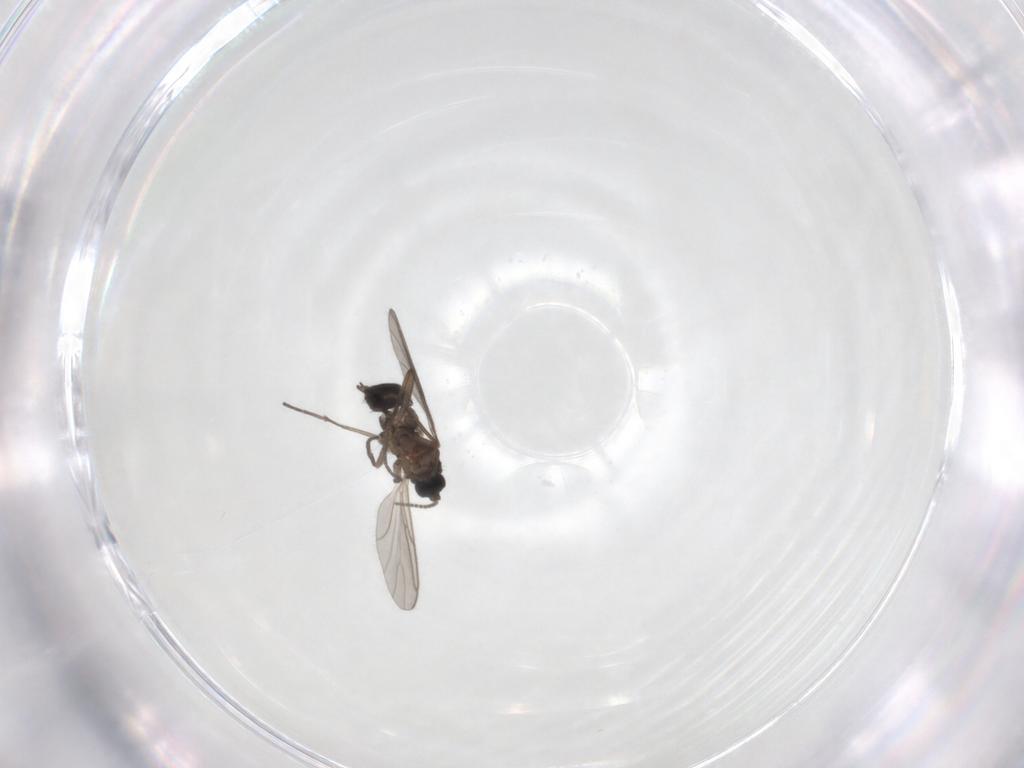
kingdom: Animalia
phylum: Arthropoda
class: Insecta
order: Diptera
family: Sciaridae
